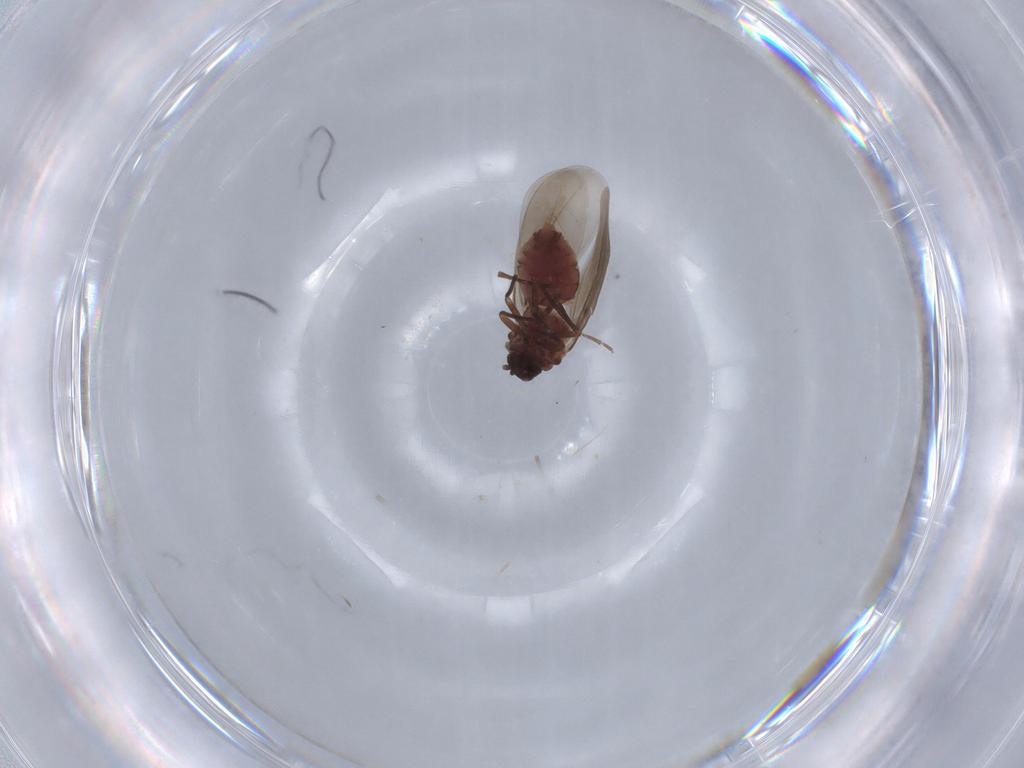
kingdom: Animalia
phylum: Arthropoda
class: Insecta
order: Hemiptera
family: Aleyrodidae
